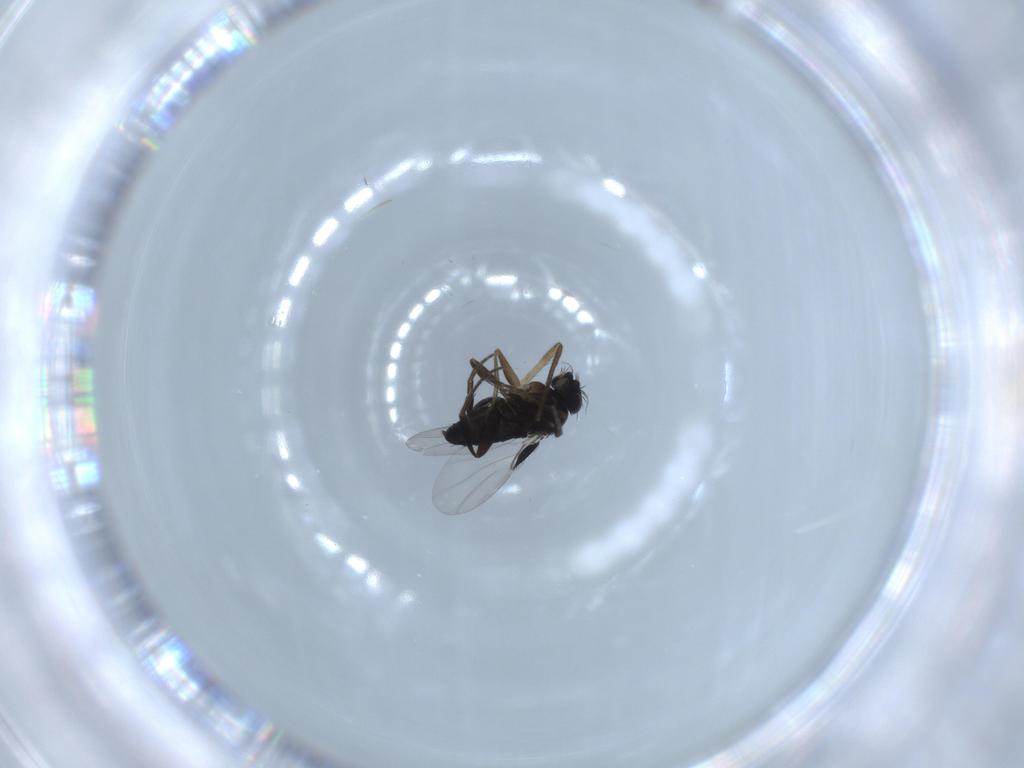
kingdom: Animalia
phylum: Arthropoda
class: Insecta
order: Diptera
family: Phoridae
